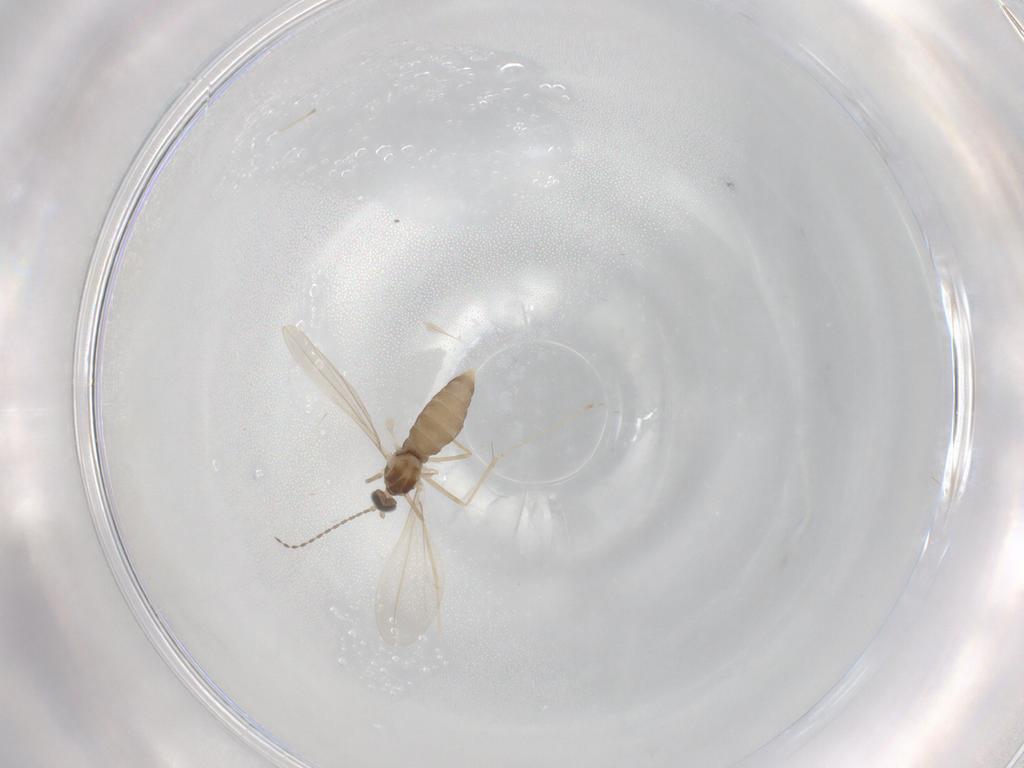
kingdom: Animalia
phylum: Arthropoda
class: Insecta
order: Diptera
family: Cecidomyiidae
